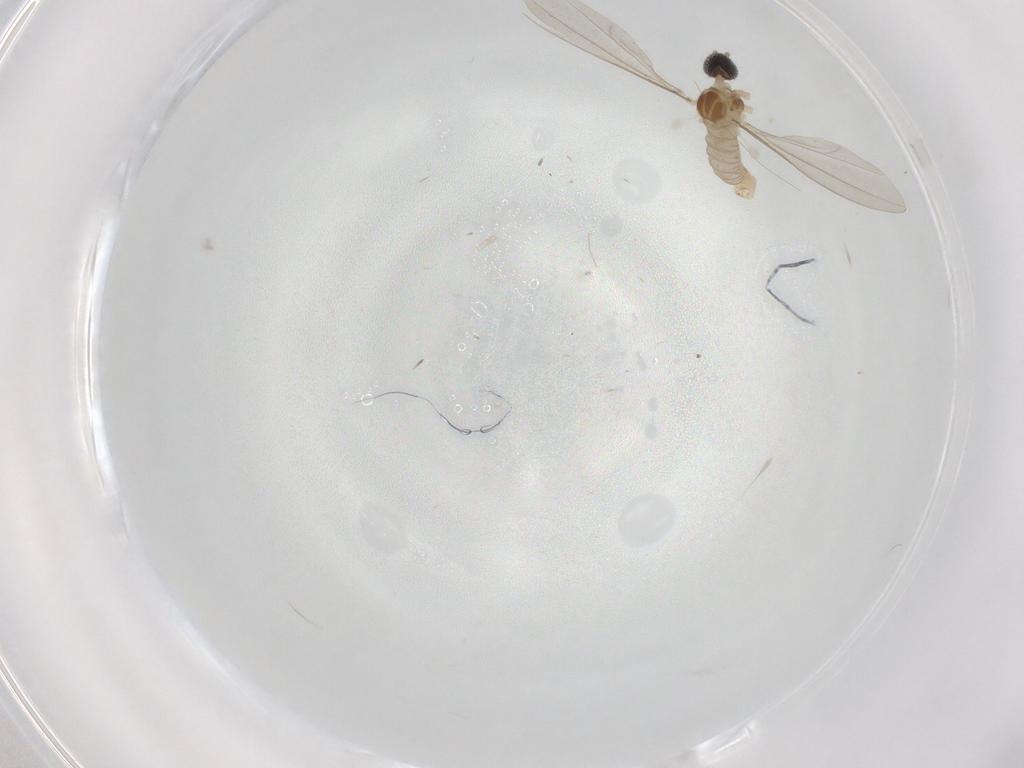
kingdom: Animalia
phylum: Arthropoda
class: Insecta
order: Diptera
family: Cecidomyiidae
